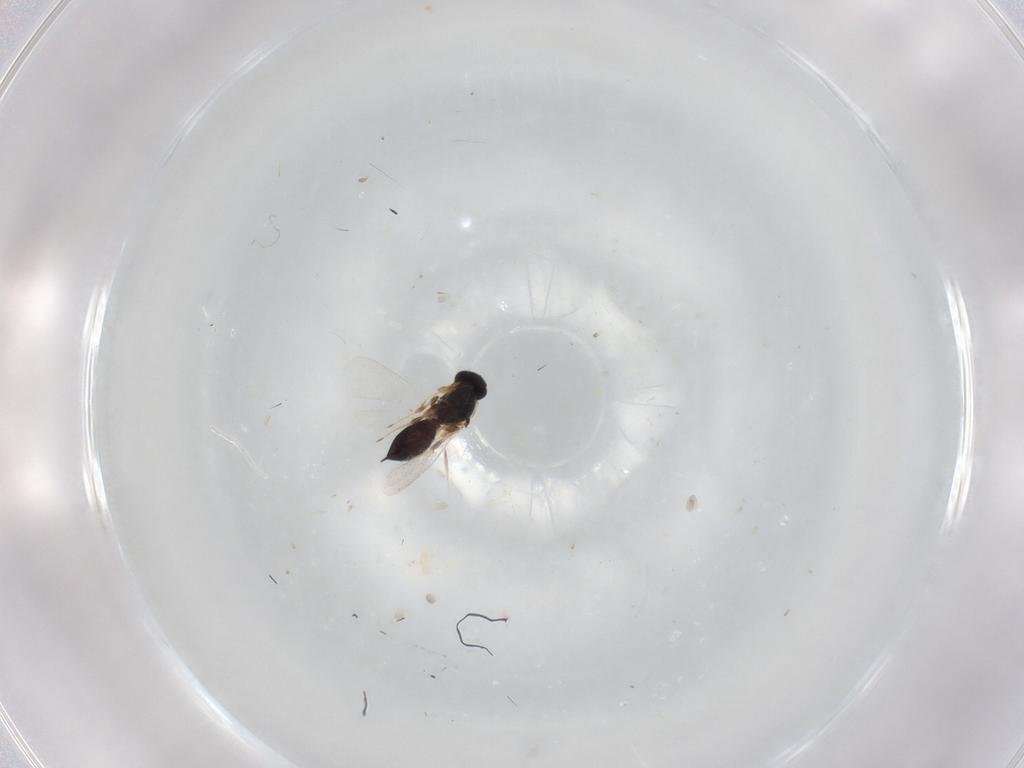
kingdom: Animalia
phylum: Arthropoda
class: Insecta
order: Hymenoptera
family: Platygastridae
